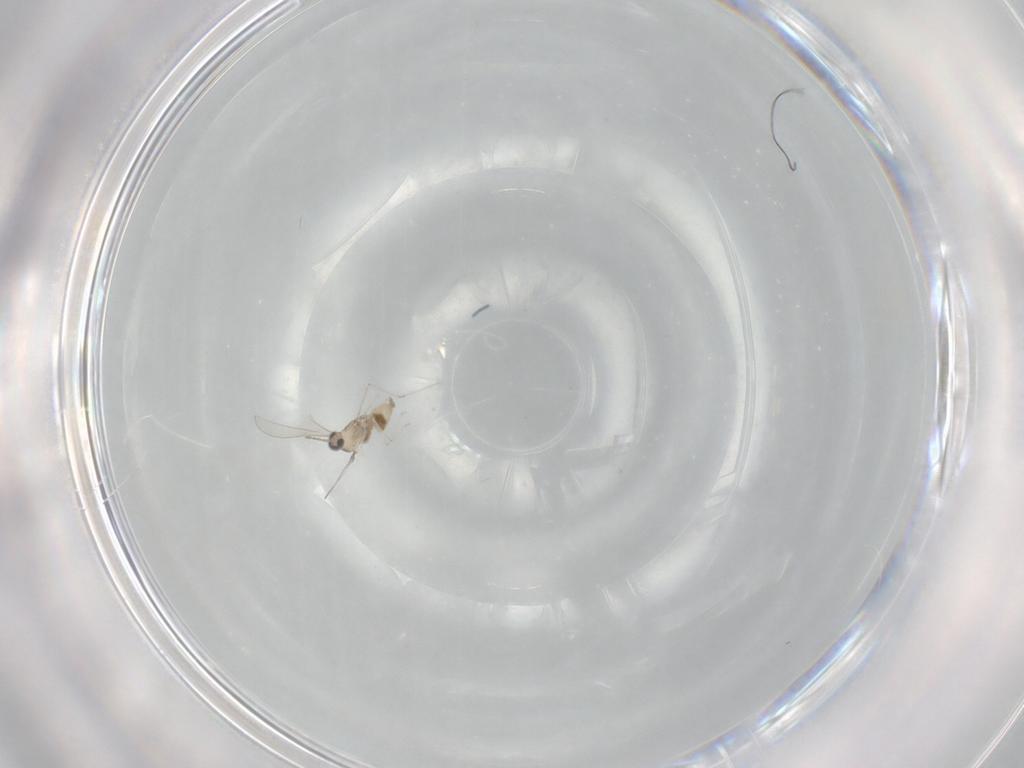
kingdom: Animalia
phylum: Arthropoda
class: Insecta
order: Diptera
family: Cecidomyiidae
